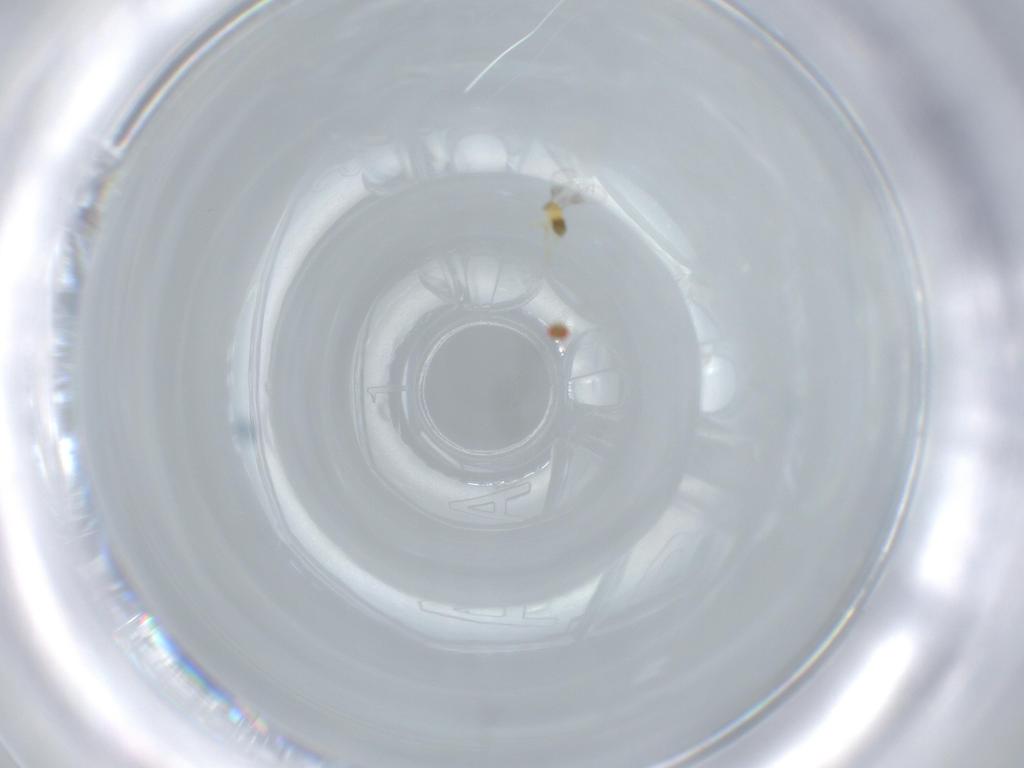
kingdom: Animalia
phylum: Arthropoda
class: Insecta
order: Hymenoptera
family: Trichogrammatidae
